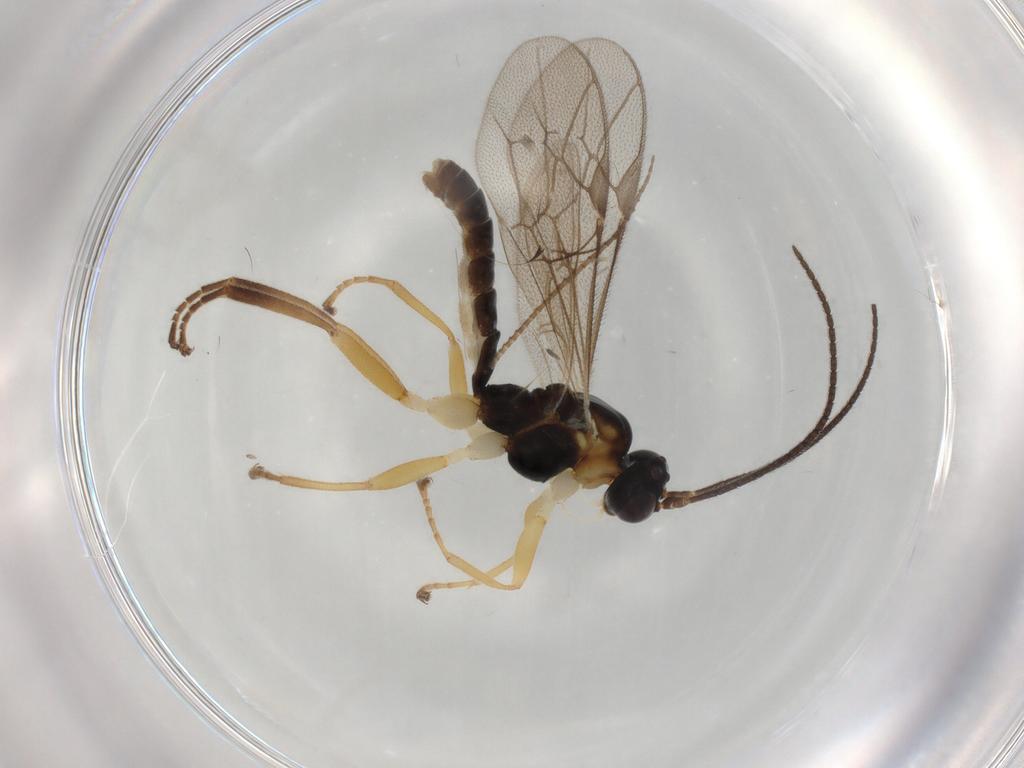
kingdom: Animalia
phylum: Arthropoda
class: Insecta
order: Hymenoptera
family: Ichneumonidae
